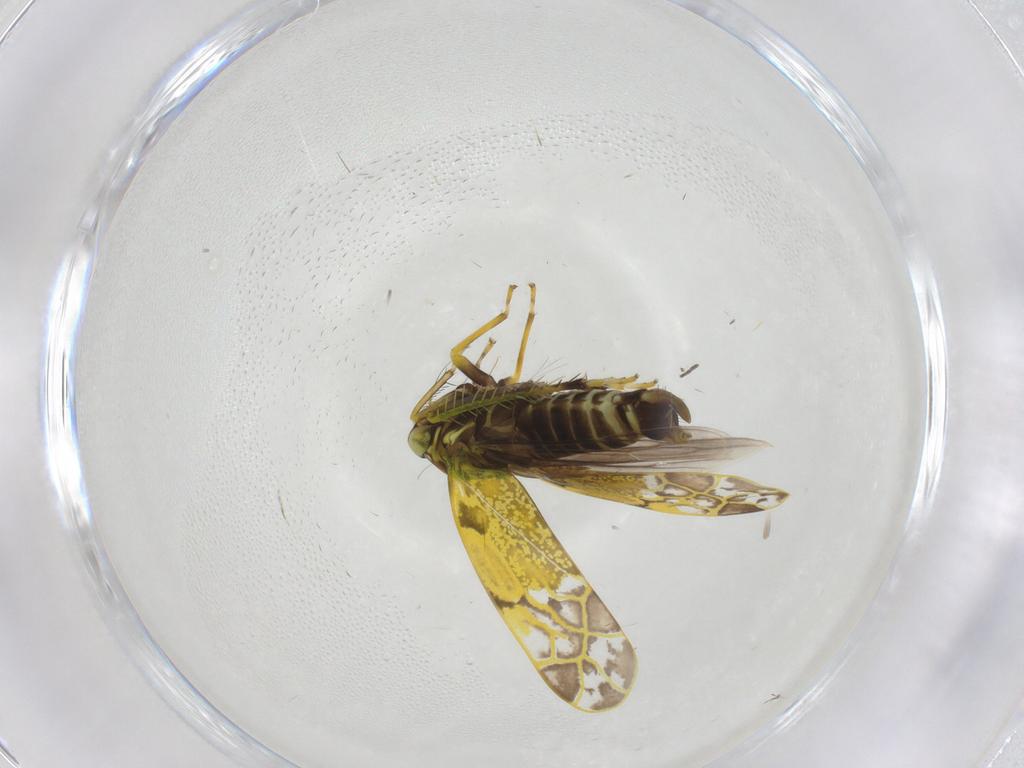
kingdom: Animalia
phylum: Arthropoda
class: Insecta
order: Hemiptera
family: Cicadellidae
